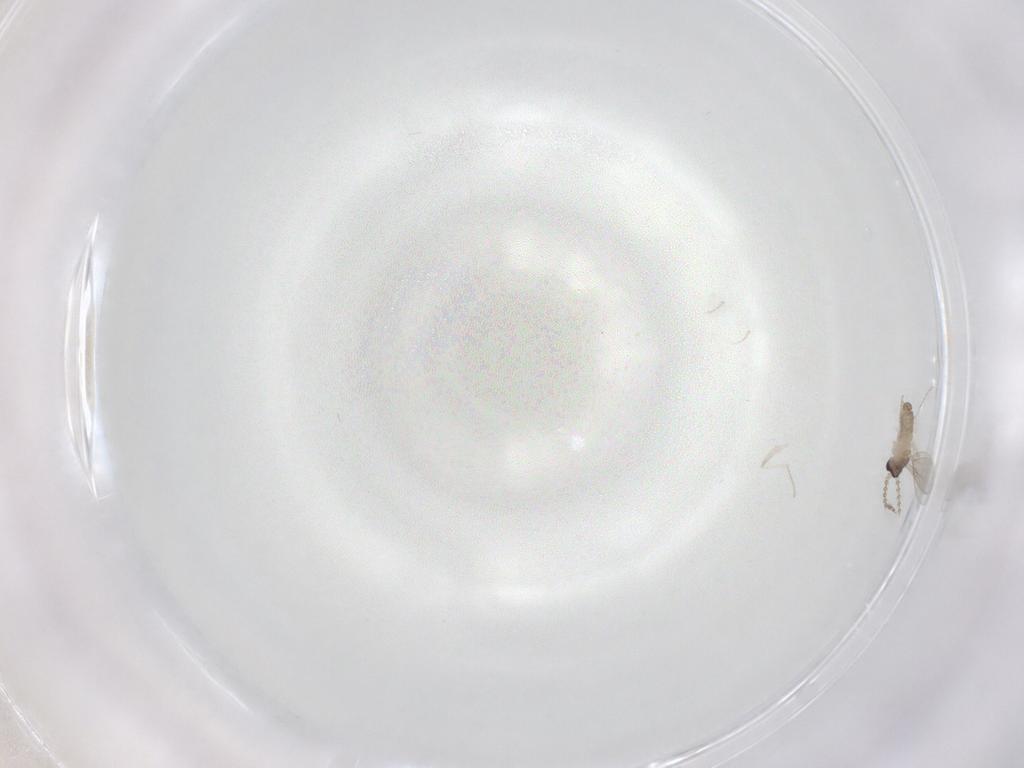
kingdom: Animalia
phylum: Arthropoda
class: Insecta
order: Diptera
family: Cecidomyiidae
